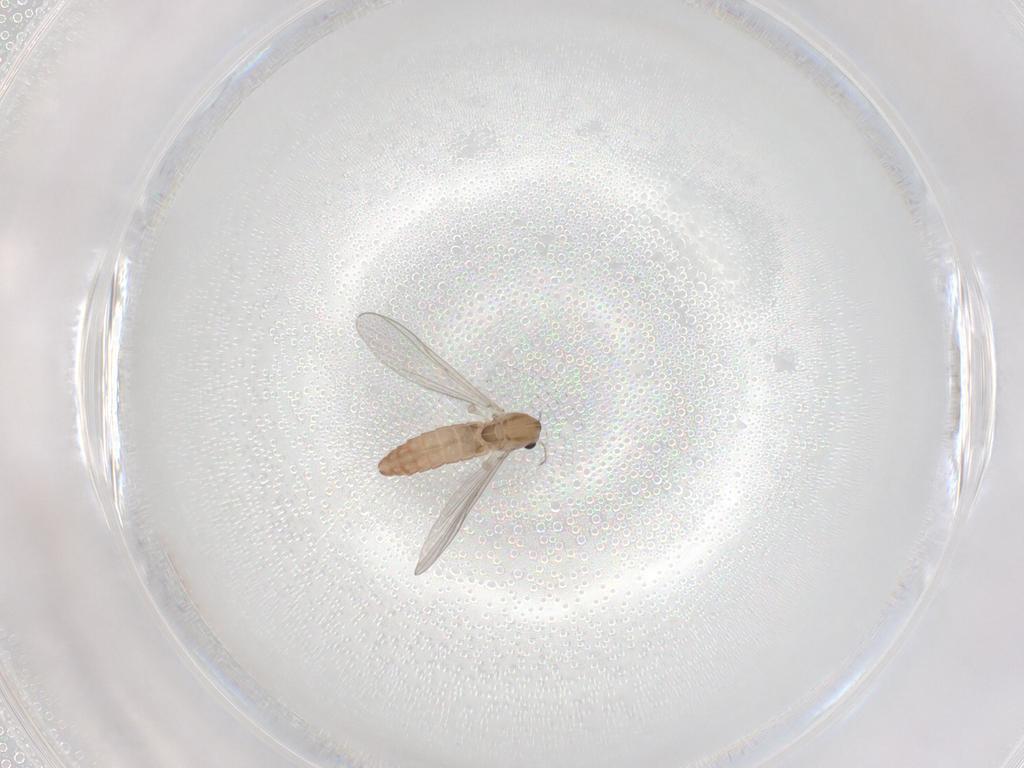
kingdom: Animalia
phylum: Arthropoda
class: Insecta
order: Diptera
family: Chironomidae
